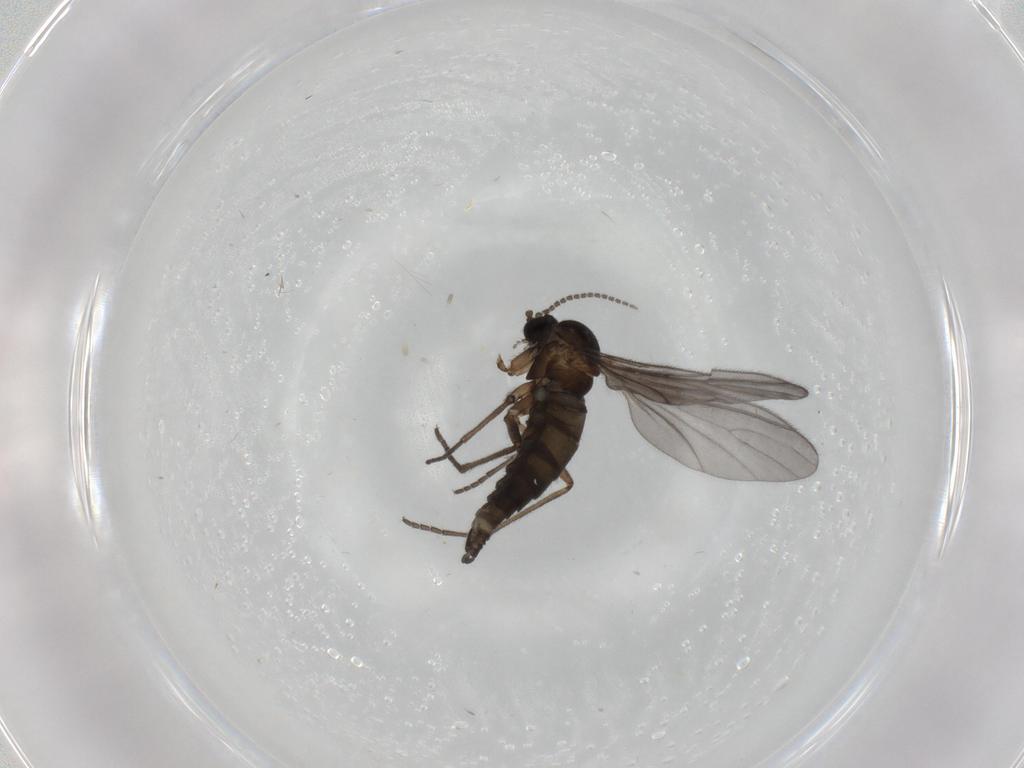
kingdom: Animalia
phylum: Arthropoda
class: Insecta
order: Diptera
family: Sciaridae
